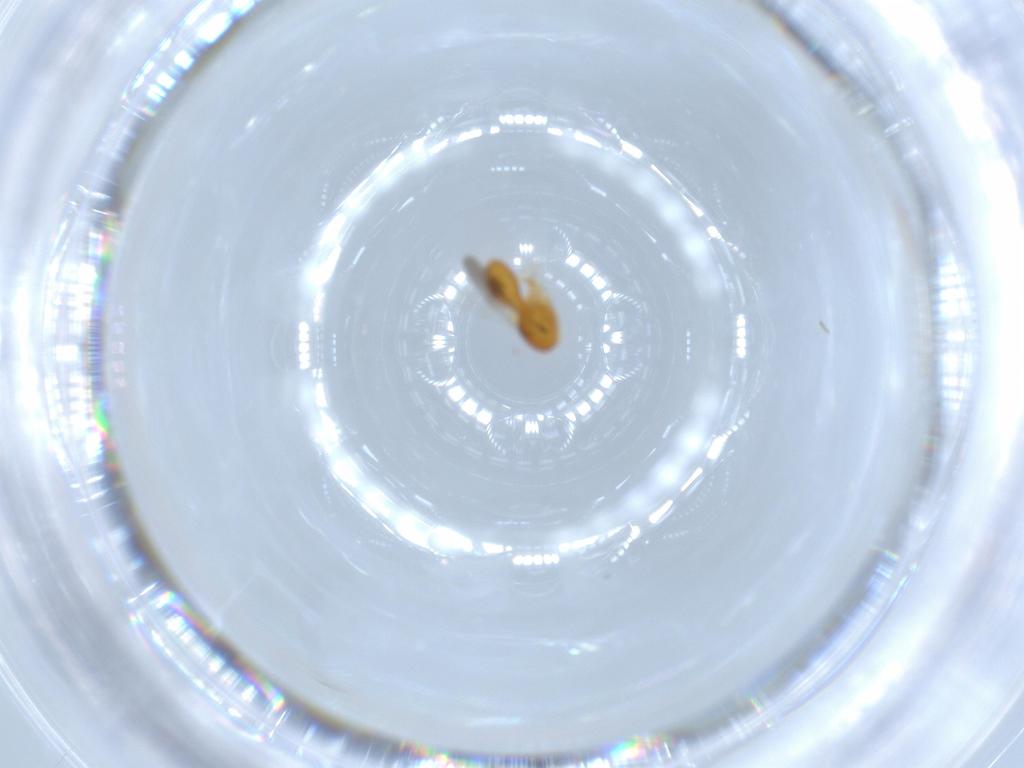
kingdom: Animalia
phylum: Arthropoda
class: Insecta
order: Hymenoptera
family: Scelionidae
